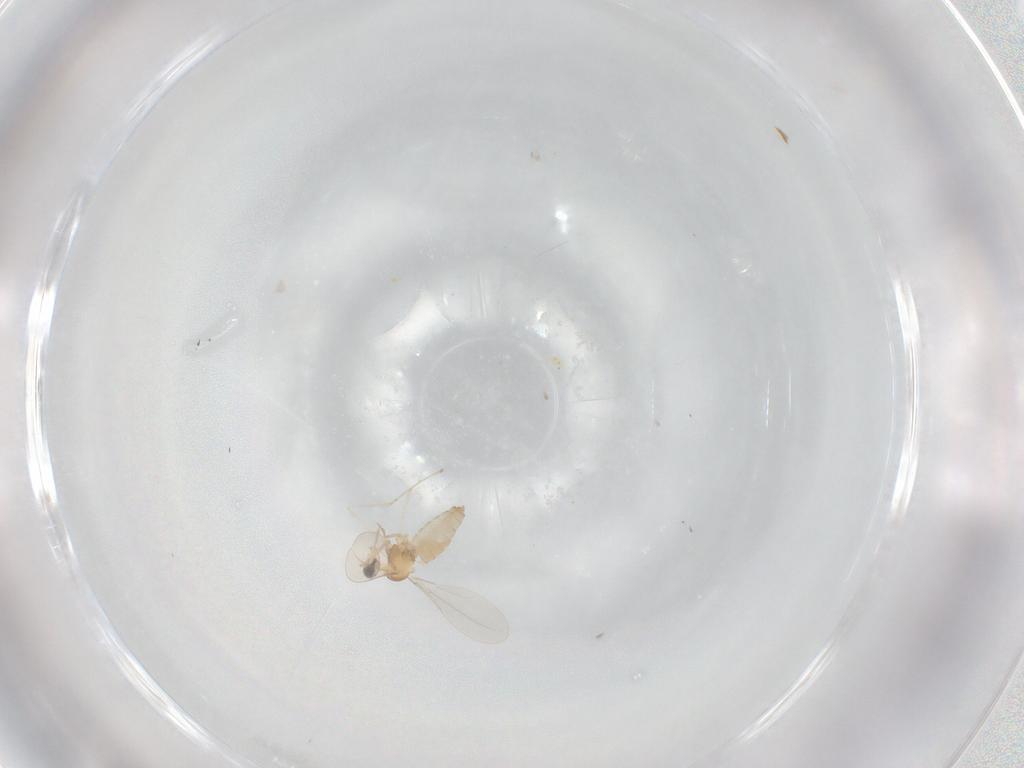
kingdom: Animalia
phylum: Arthropoda
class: Insecta
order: Diptera
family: Cecidomyiidae
